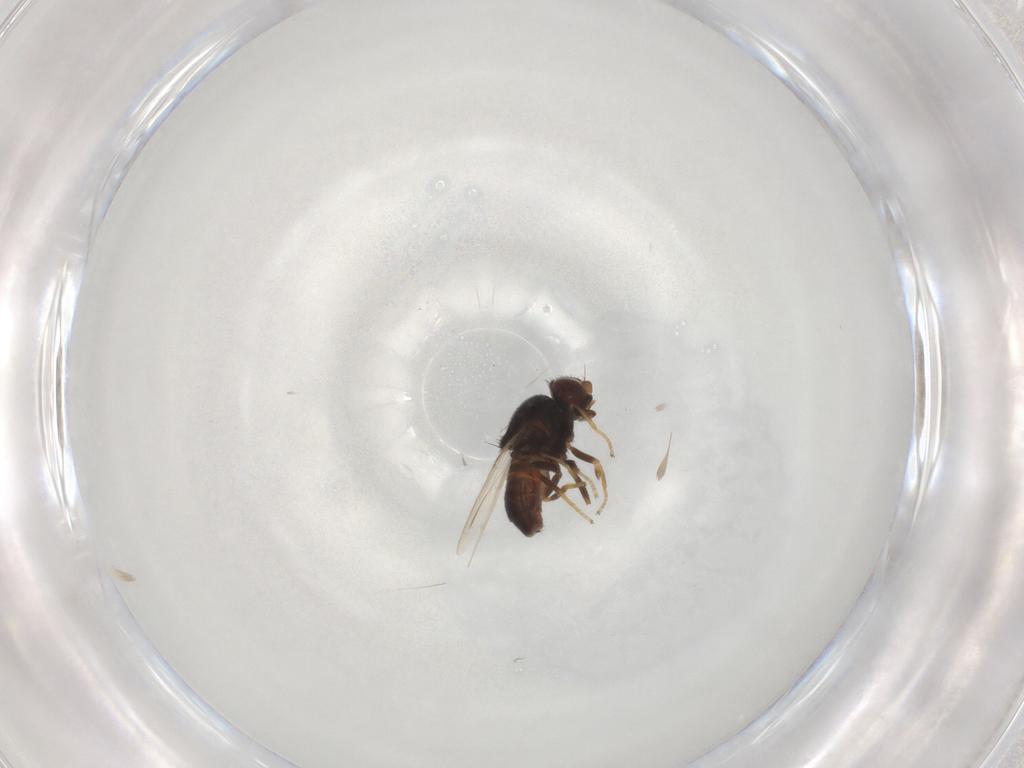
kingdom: Animalia
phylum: Arthropoda
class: Insecta
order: Diptera
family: Chloropidae
